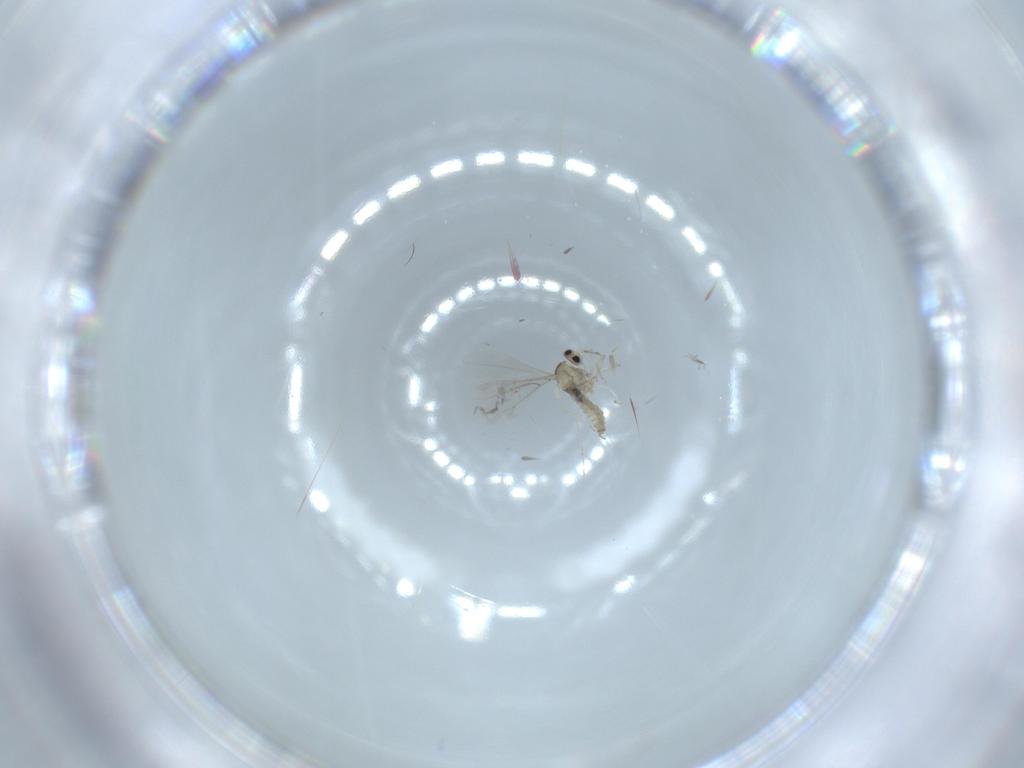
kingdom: Animalia
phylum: Arthropoda
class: Insecta
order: Diptera
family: Cecidomyiidae
